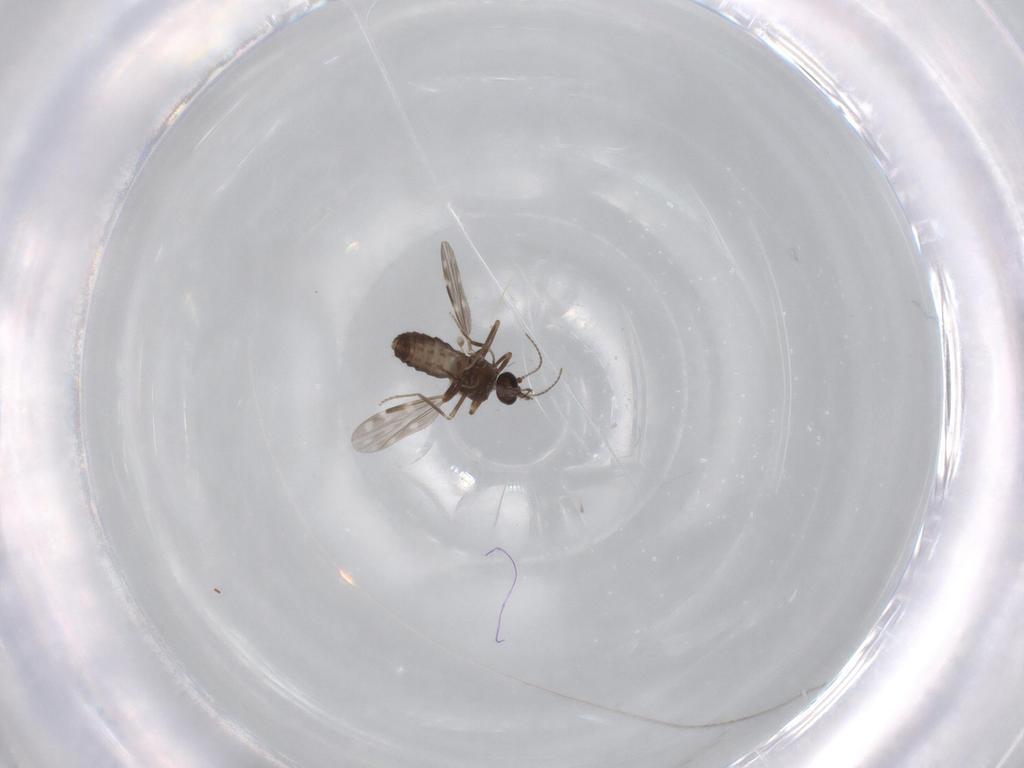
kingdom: Animalia
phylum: Arthropoda
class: Insecta
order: Diptera
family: Ceratopogonidae
